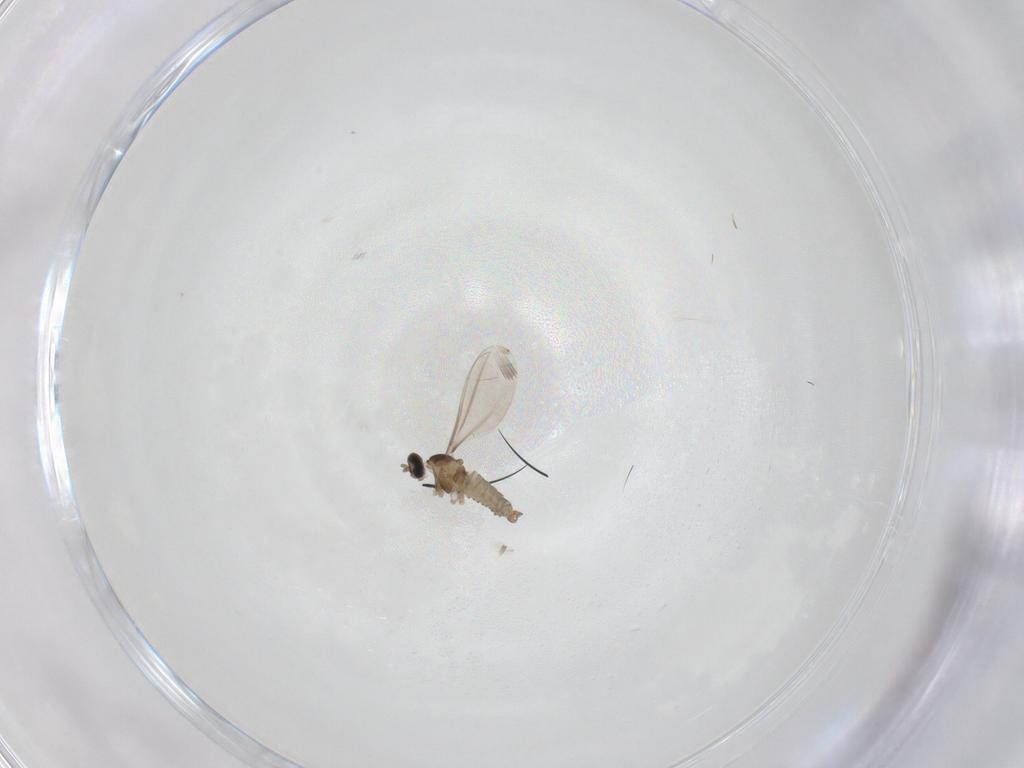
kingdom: Animalia
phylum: Arthropoda
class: Insecta
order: Diptera
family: Cecidomyiidae
